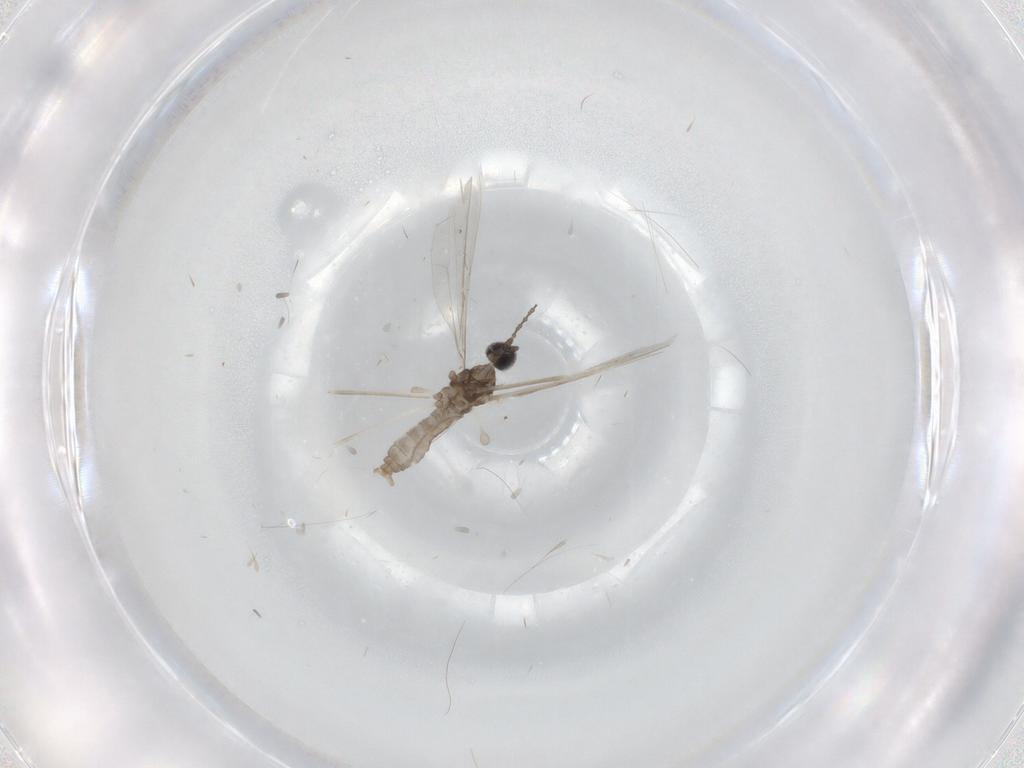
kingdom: Animalia
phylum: Arthropoda
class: Insecta
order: Diptera
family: Cecidomyiidae
